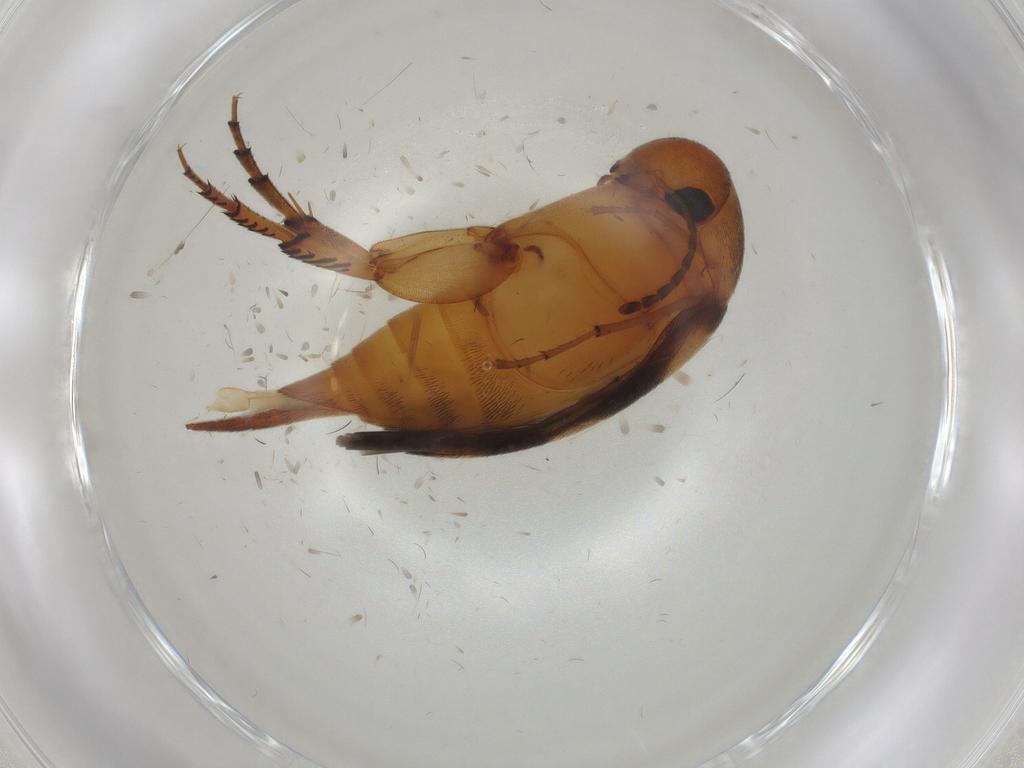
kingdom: Animalia
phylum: Arthropoda
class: Insecta
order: Coleoptera
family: Mordellidae
